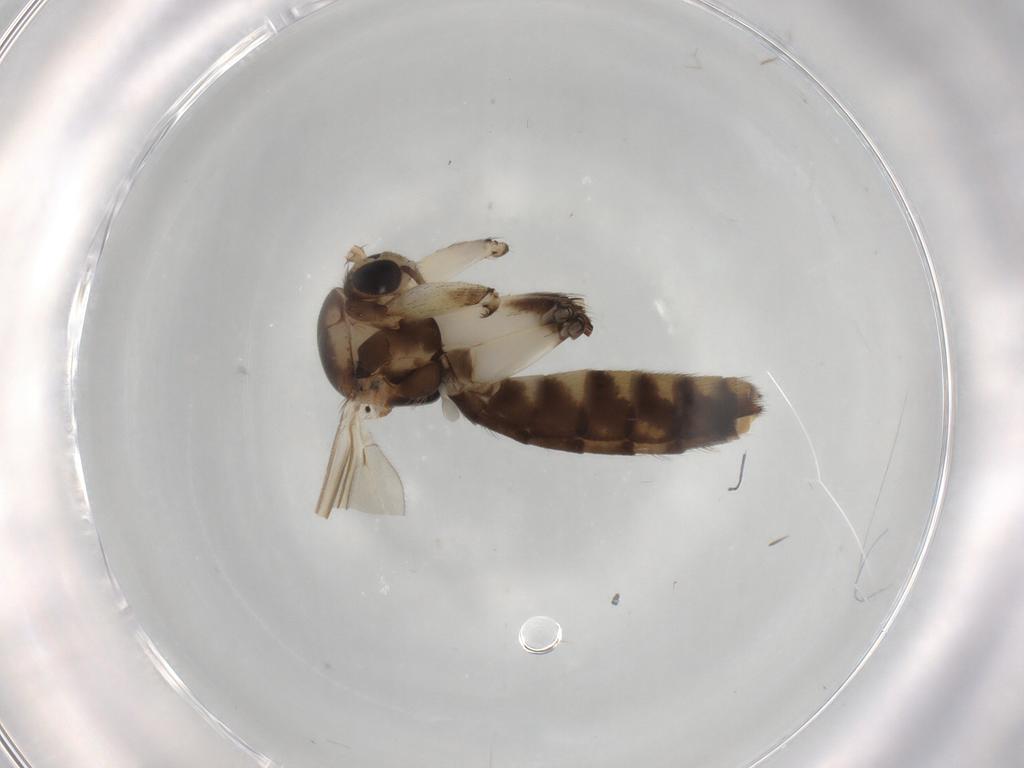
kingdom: Animalia
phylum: Arthropoda
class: Insecta
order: Diptera
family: Muscidae
